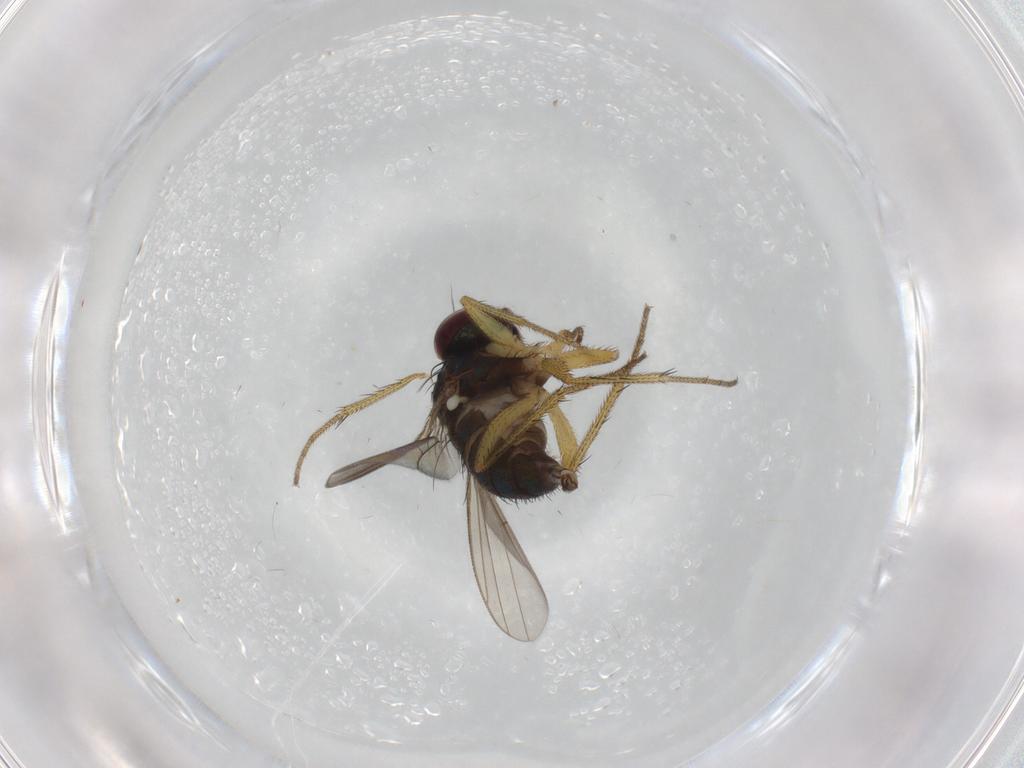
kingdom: Animalia
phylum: Arthropoda
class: Insecta
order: Diptera
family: Dolichopodidae
